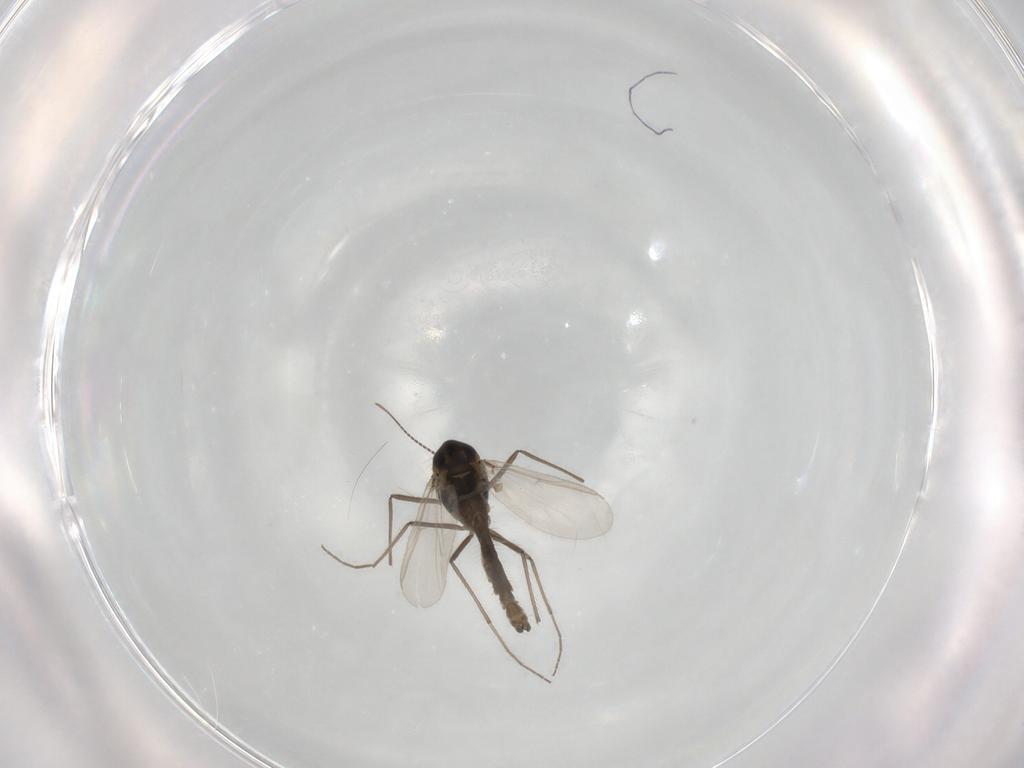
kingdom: Animalia
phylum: Arthropoda
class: Insecta
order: Diptera
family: Chironomidae
